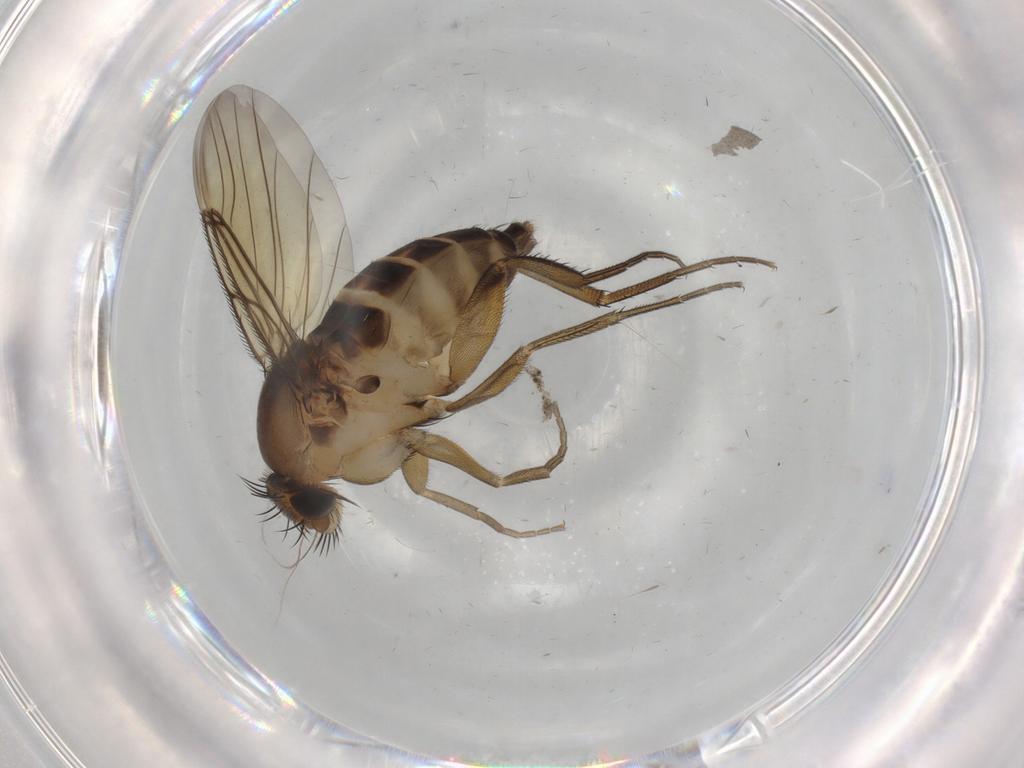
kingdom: Animalia
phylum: Arthropoda
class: Insecta
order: Diptera
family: Phoridae
